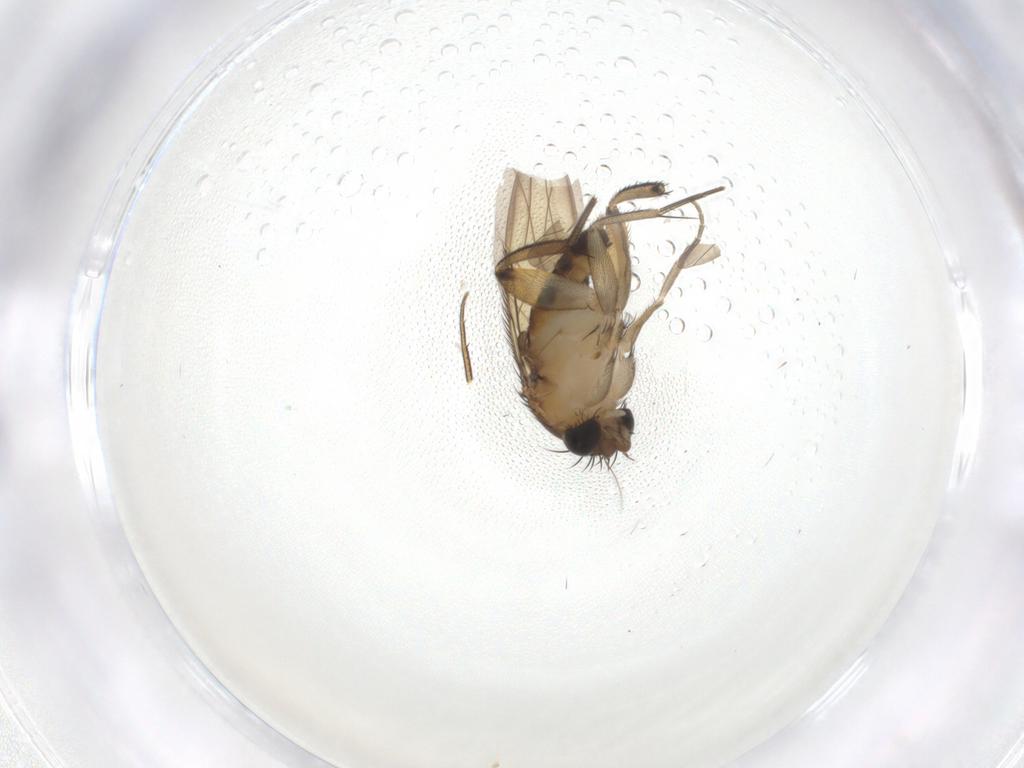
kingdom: Animalia
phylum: Arthropoda
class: Insecta
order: Diptera
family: Phoridae
